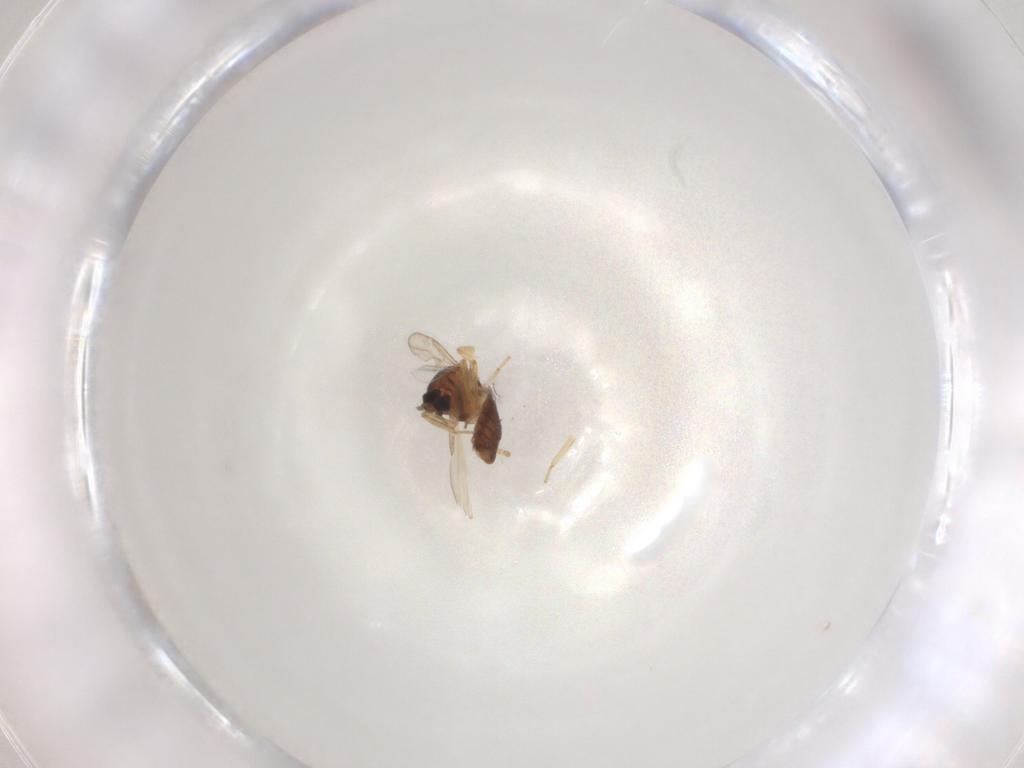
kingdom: Animalia
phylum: Arthropoda
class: Insecta
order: Diptera
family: Ceratopogonidae
